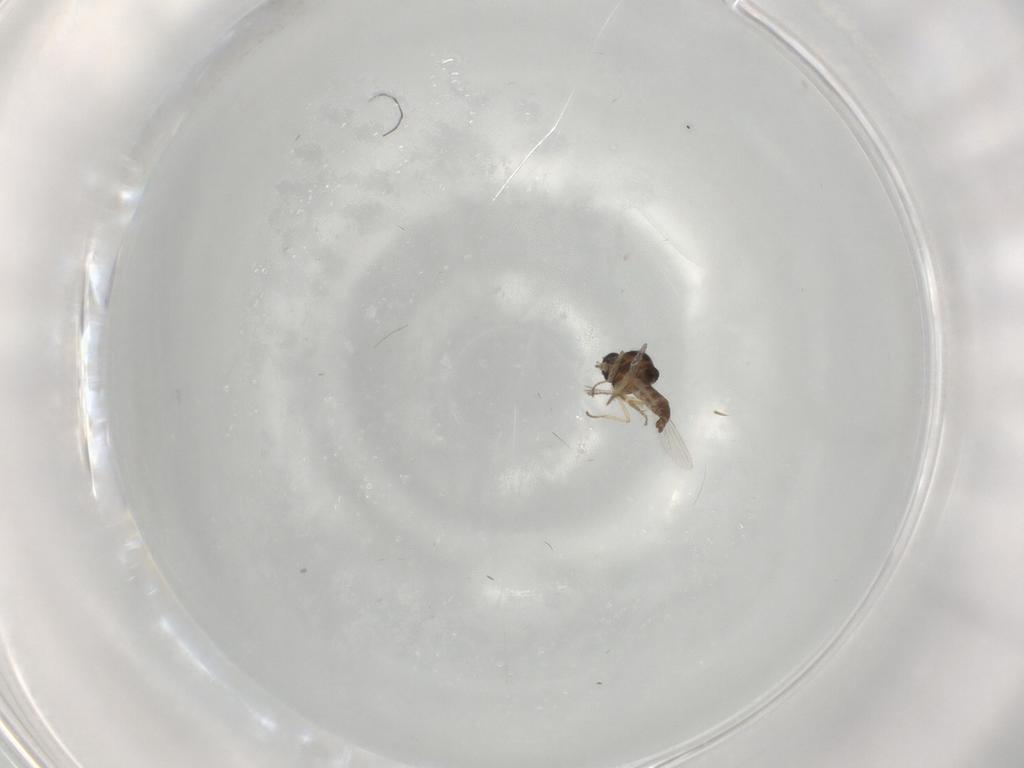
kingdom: Animalia
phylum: Arthropoda
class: Insecta
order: Diptera
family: Ceratopogonidae
